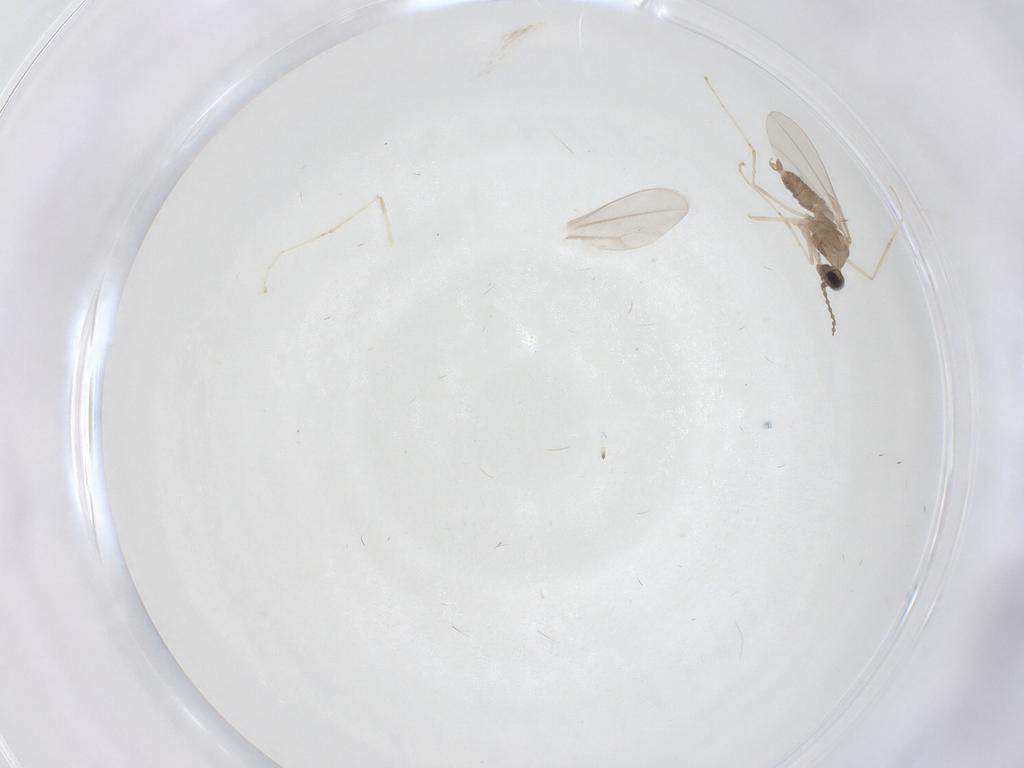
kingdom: Animalia
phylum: Arthropoda
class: Insecta
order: Diptera
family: Cecidomyiidae
